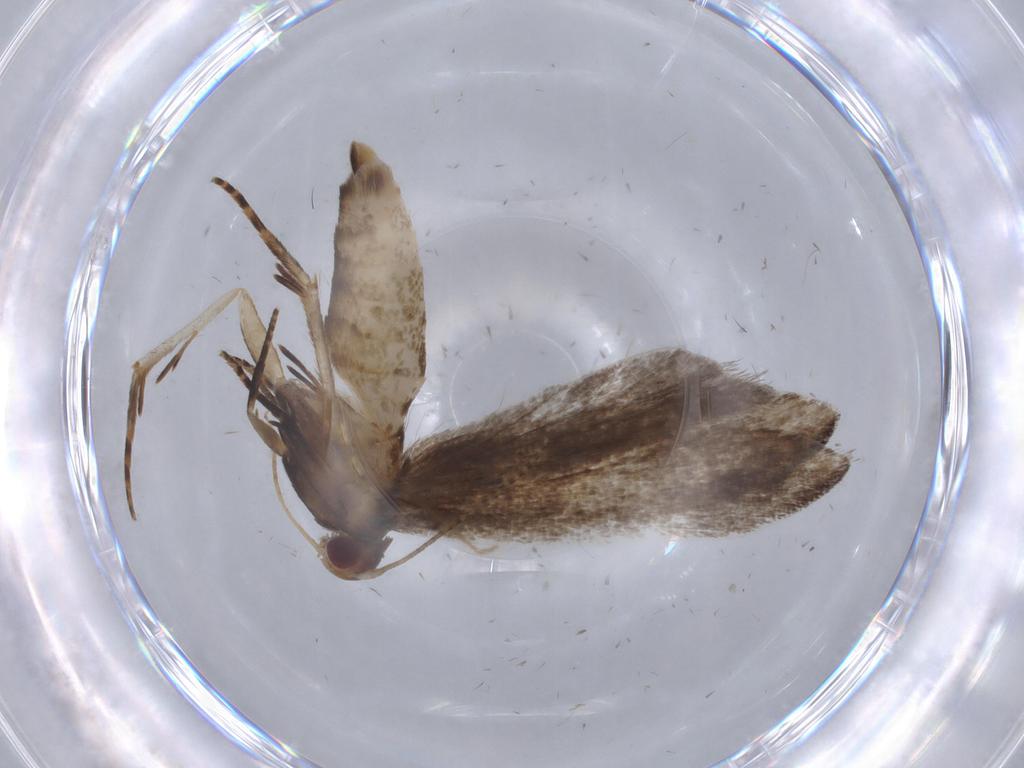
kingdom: Animalia
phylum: Arthropoda
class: Insecta
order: Lepidoptera
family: Gelechiidae
